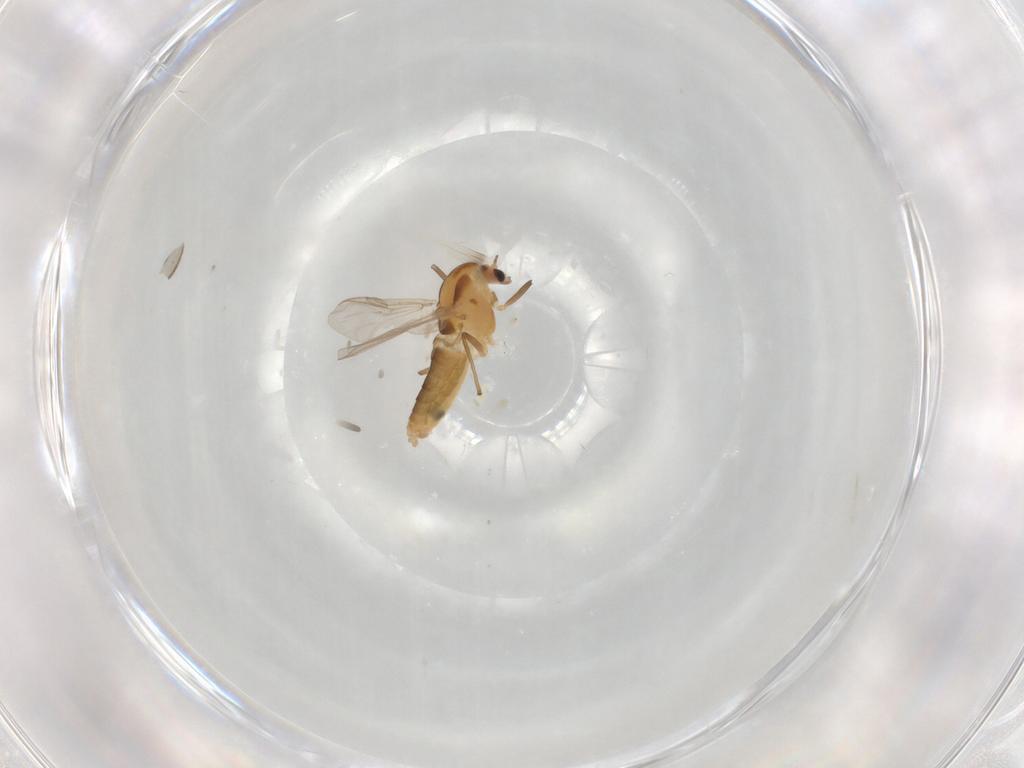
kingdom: Animalia
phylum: Arthropoda
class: Insecta
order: Diptera
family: Chironomidae
